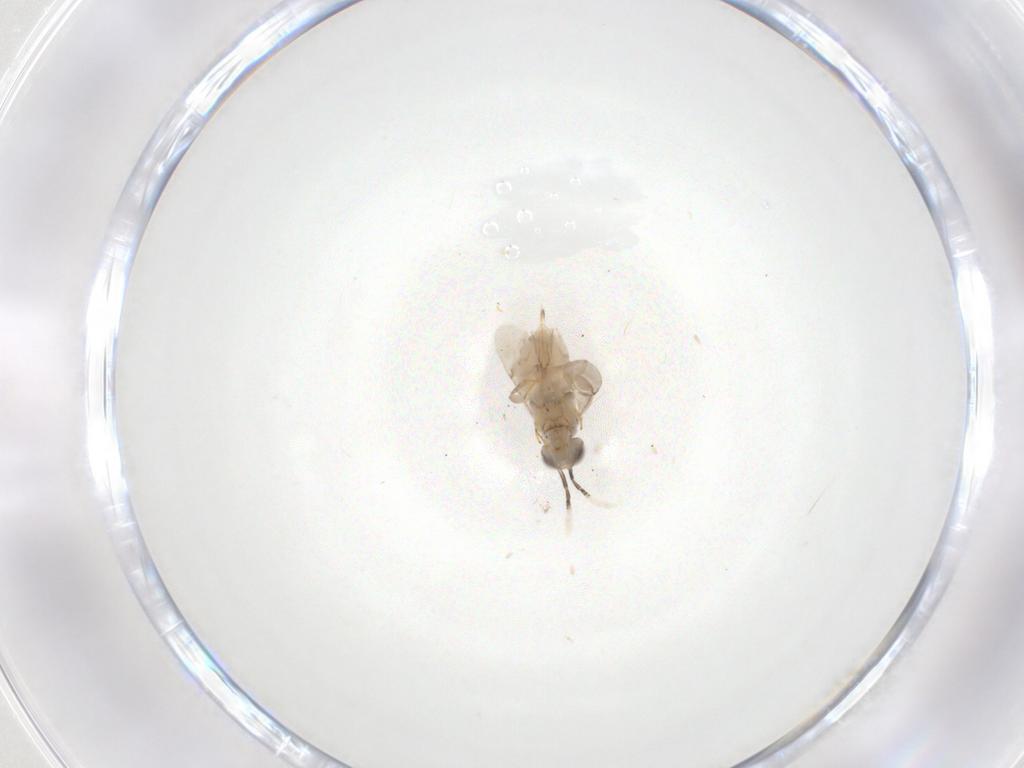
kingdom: Animalia
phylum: Arthropoda
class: Insecta
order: Hymenoptera
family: Encyrtidae
